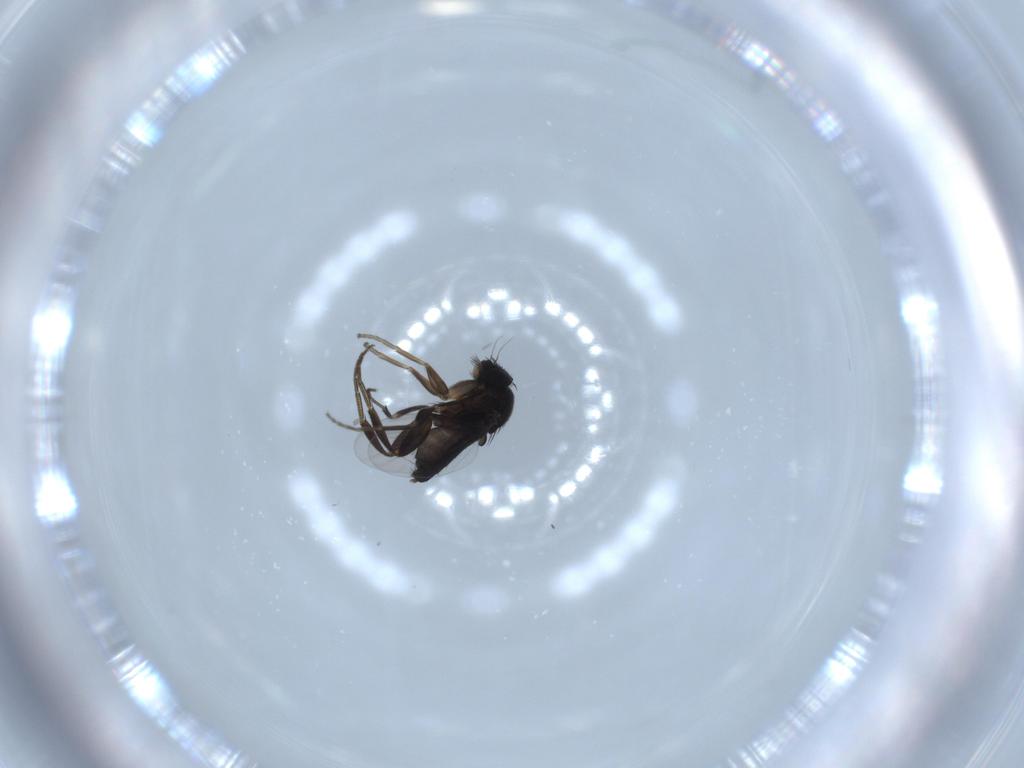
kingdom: Animalia
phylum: Arthropoda
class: Insecta
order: Diptera
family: Phoridae
